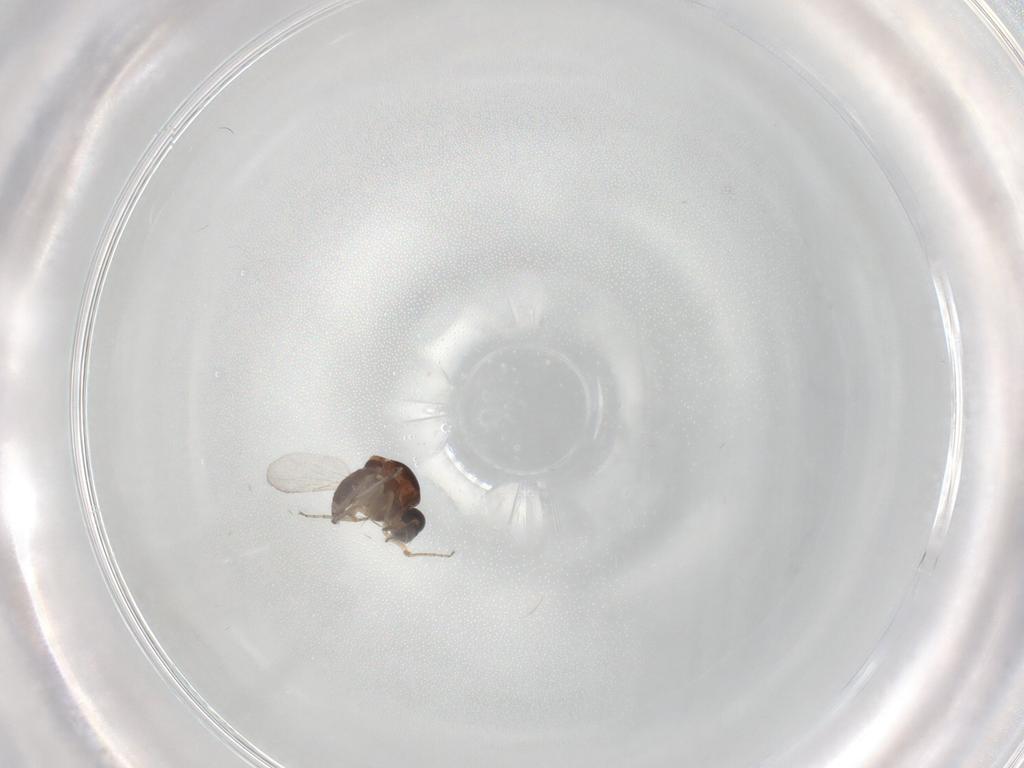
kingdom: Animalia
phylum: Arthropoda
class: Insecta
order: Diptera
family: Ceratopogonidae
